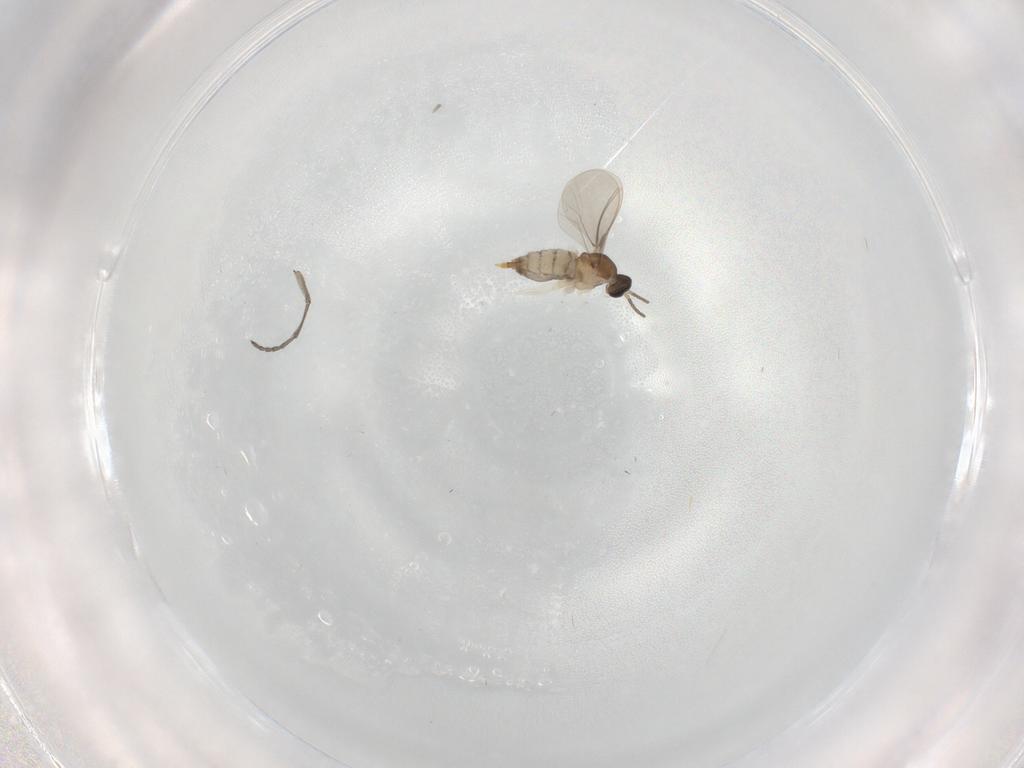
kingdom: Animalia
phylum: Arthropoda
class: Insecta
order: Diptera
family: Sciaridae
